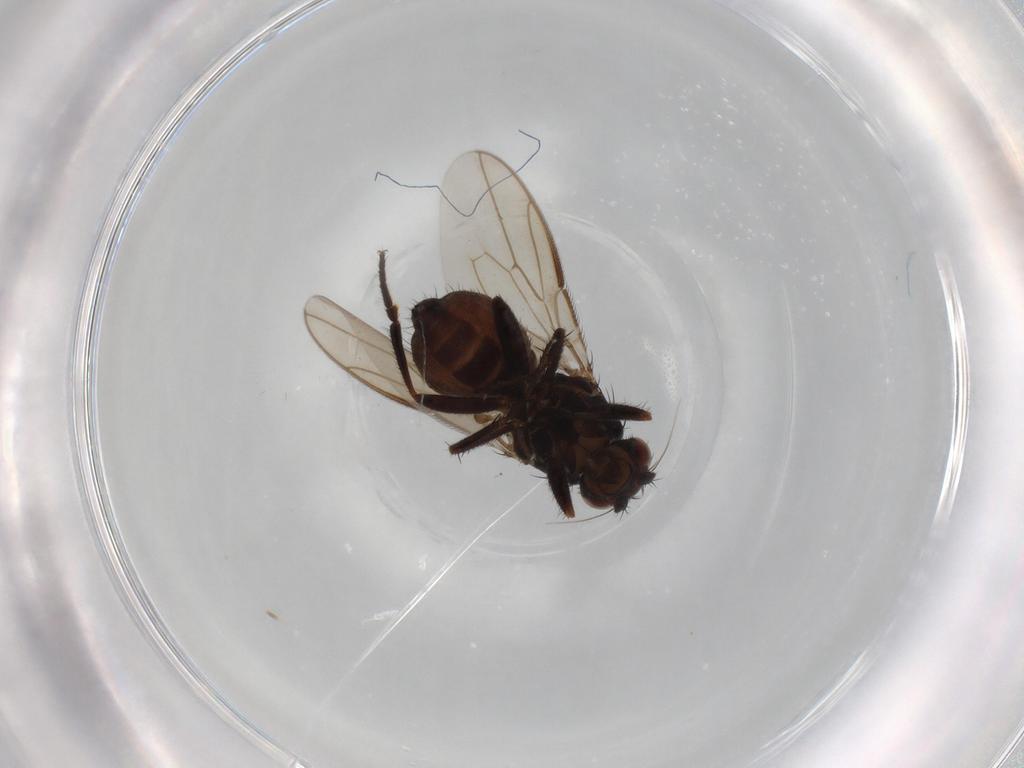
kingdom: Animalia
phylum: Arthropoda
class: Insecta
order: Diptera
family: Sphaeroceridae
